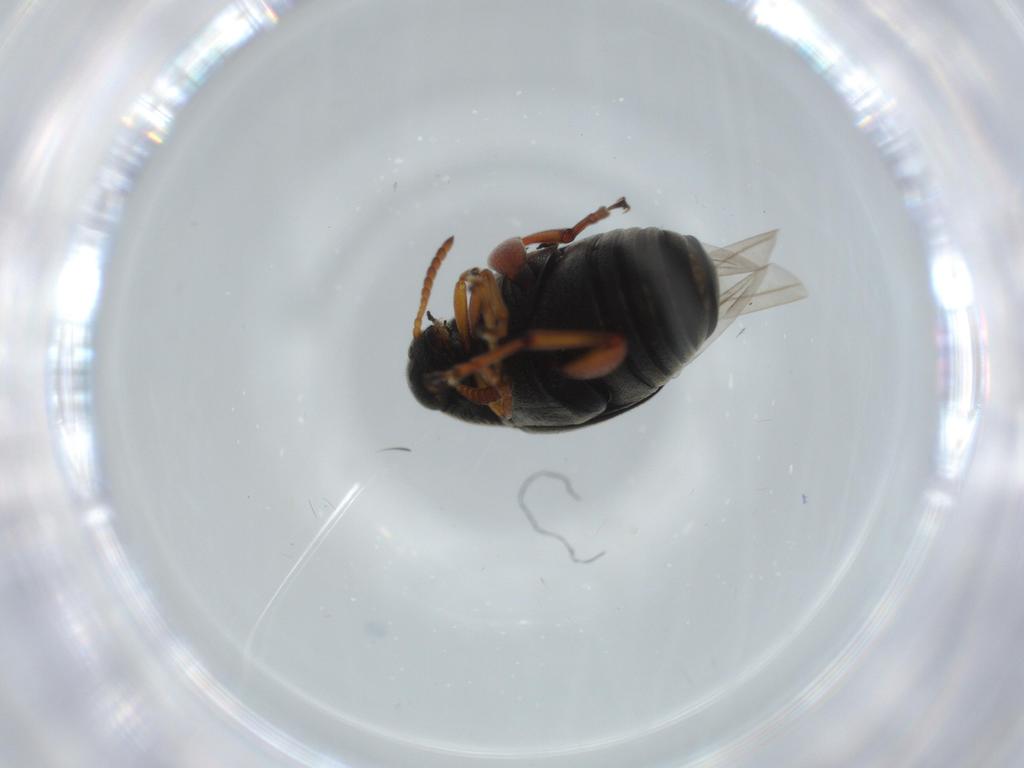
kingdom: Animalia
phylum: Arthropoda
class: Insecta
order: Coleoptera
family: Chrysomelidae
